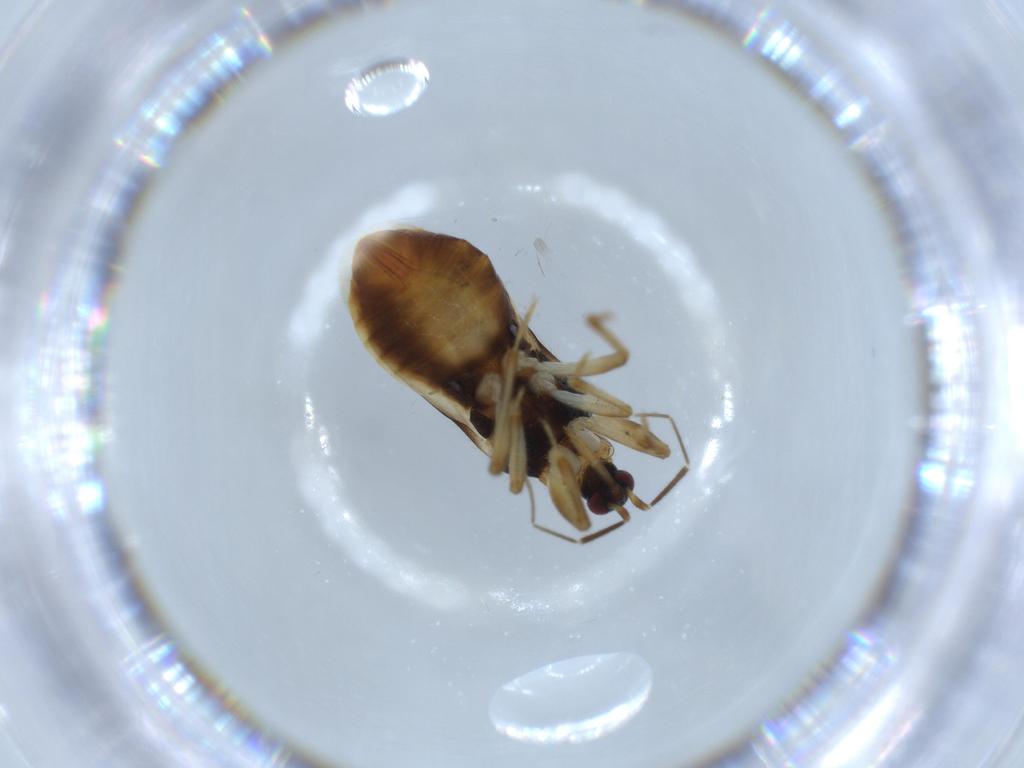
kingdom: Animalia
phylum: Arthropoda
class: Insecta
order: Hemiptera
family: Nabidae
